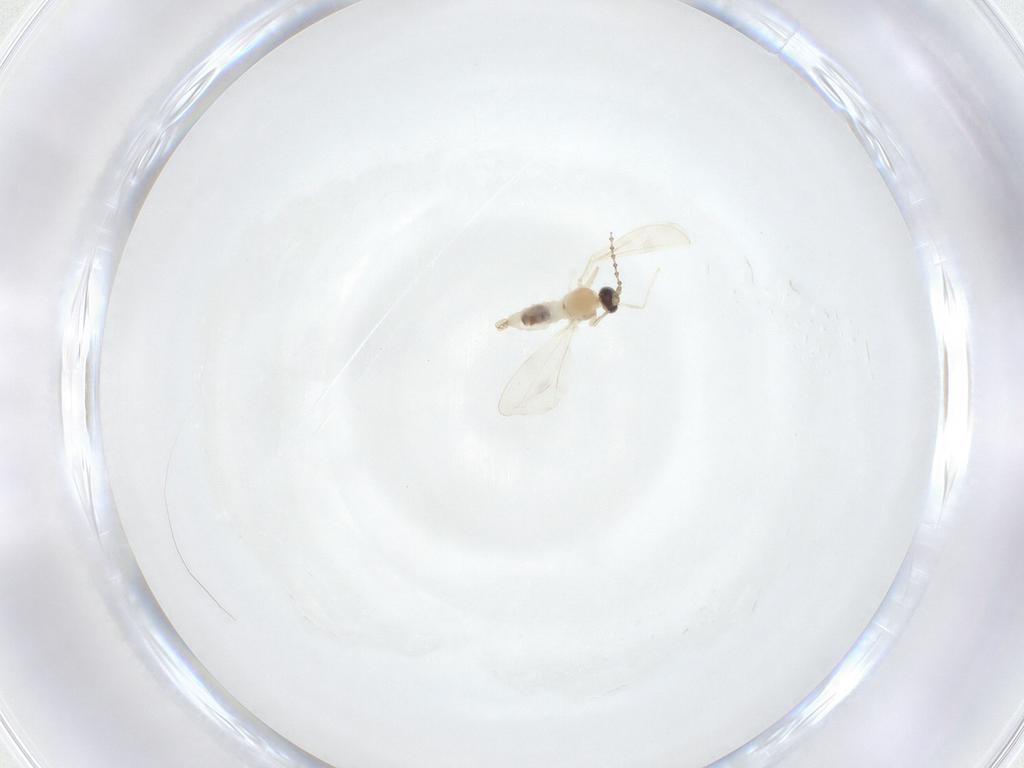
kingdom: Animalia
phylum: Arthropoda
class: Insecta
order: Diptera
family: Cecidomyiidae
